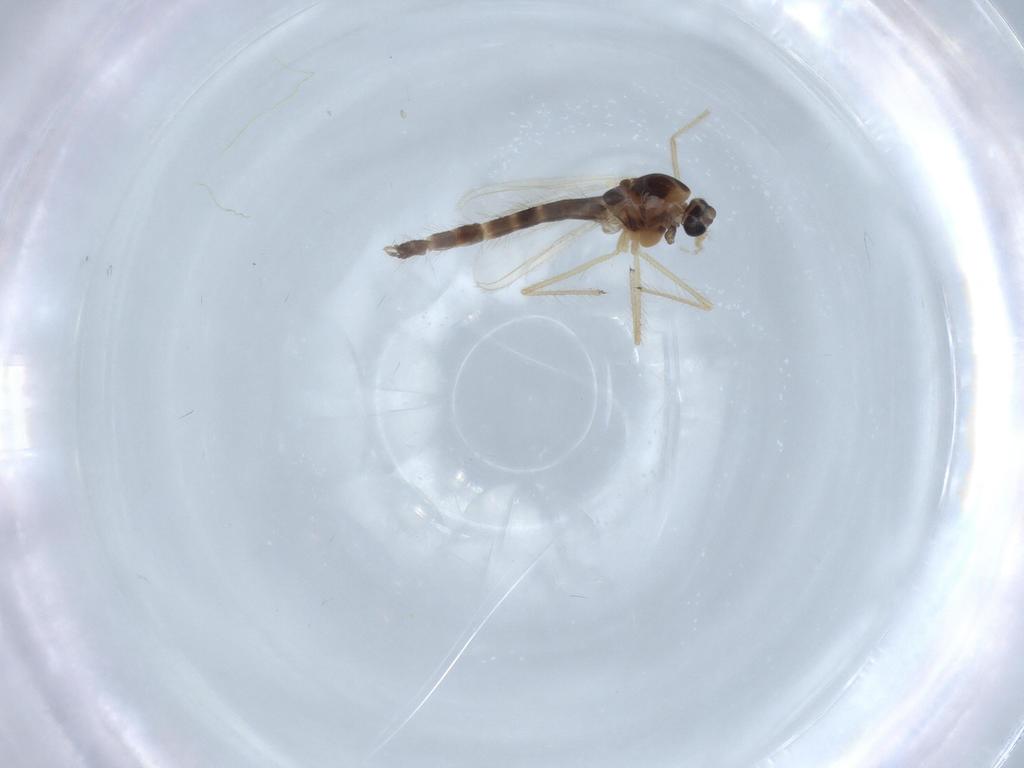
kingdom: Animalia
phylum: Arthropoda
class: Insecta
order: Diptera
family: Chironomidae
